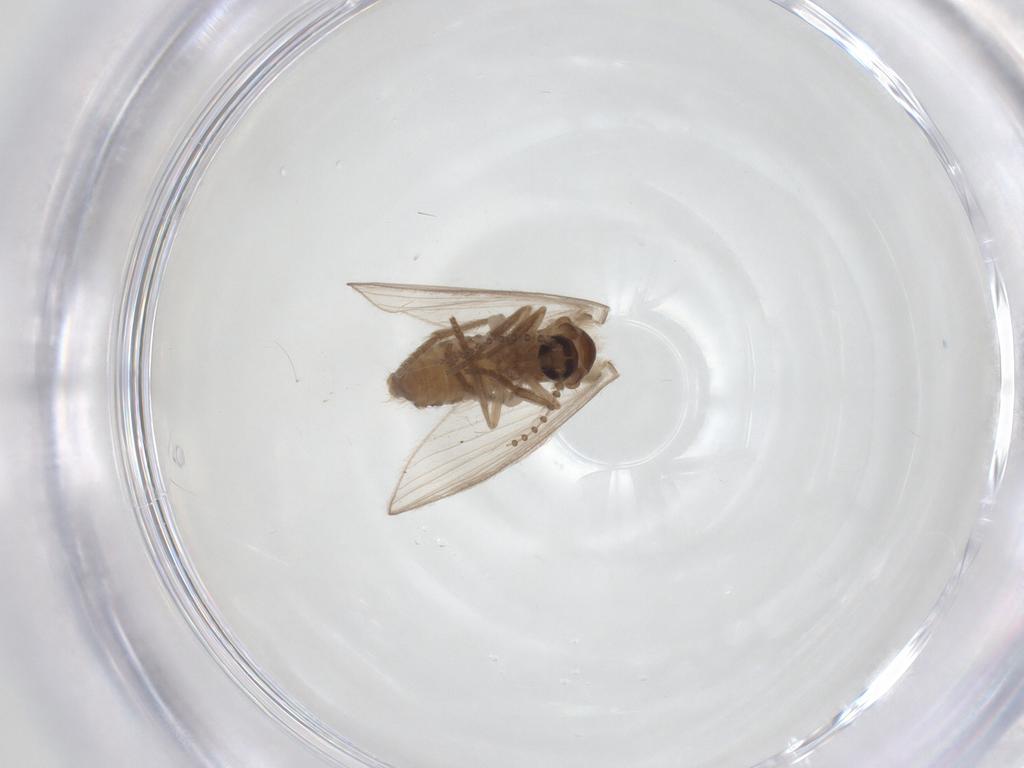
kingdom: Animalia
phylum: Arthropoda
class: Insecta
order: Diptera
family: Psychodidae
